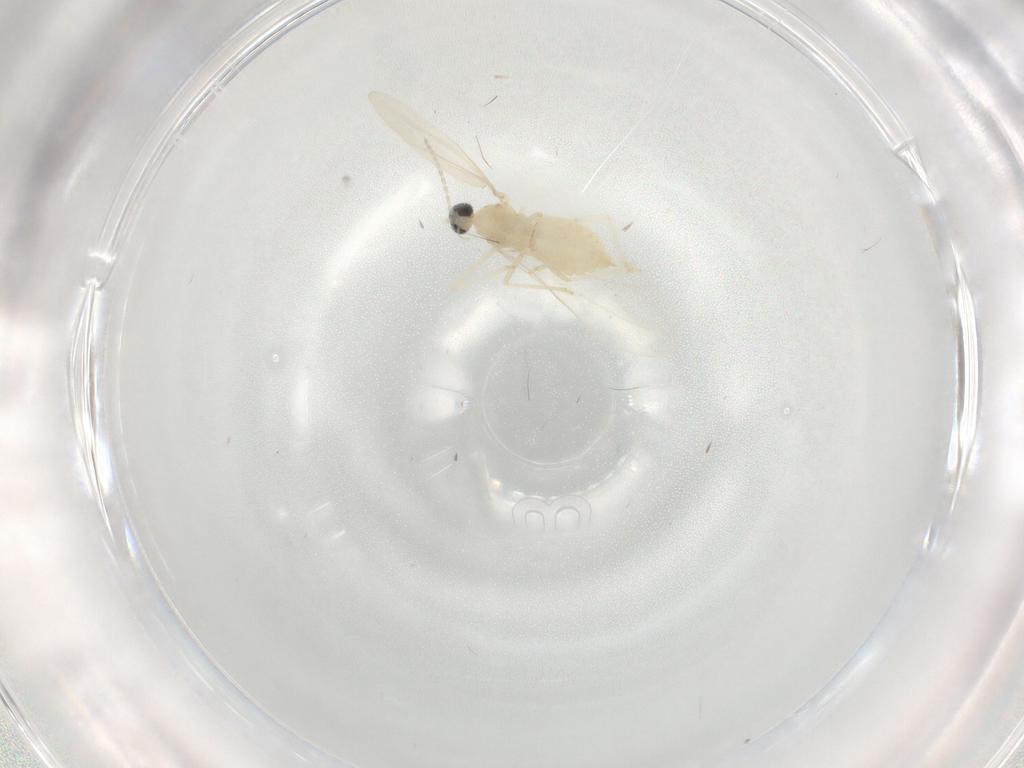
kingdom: Animalia
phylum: Arthropoda
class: Insecta
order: Diptera
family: Cecidomyiidae
